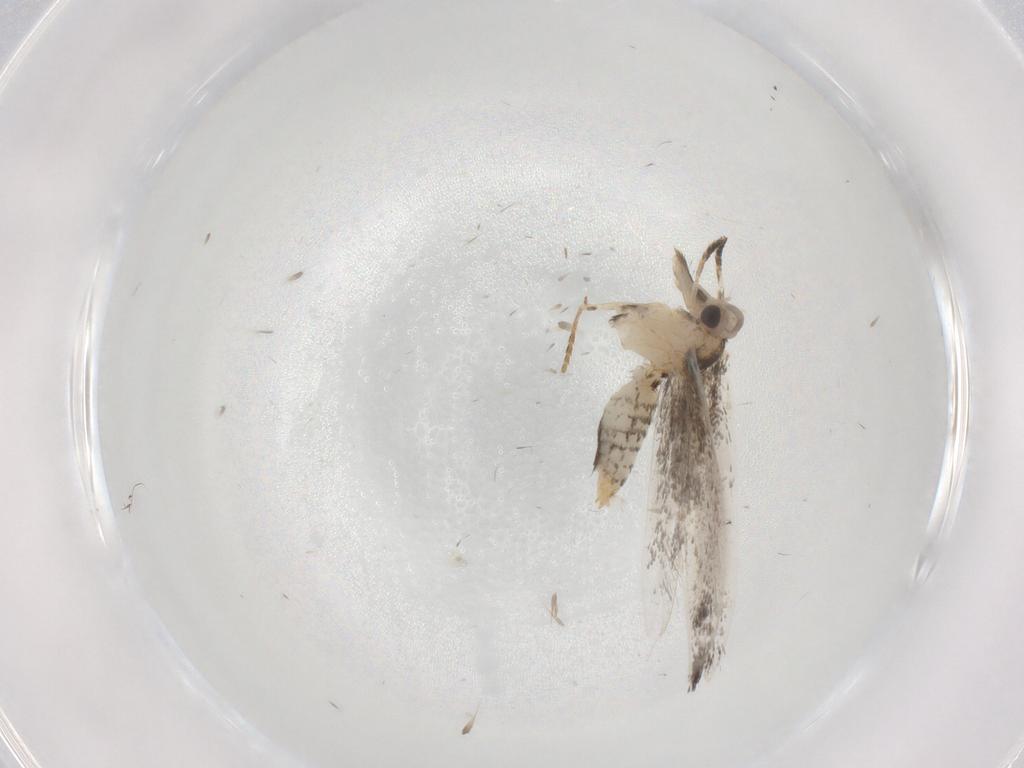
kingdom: Animalia
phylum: Arthropoda
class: Insecta
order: Lepidoptera
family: Tineidae
